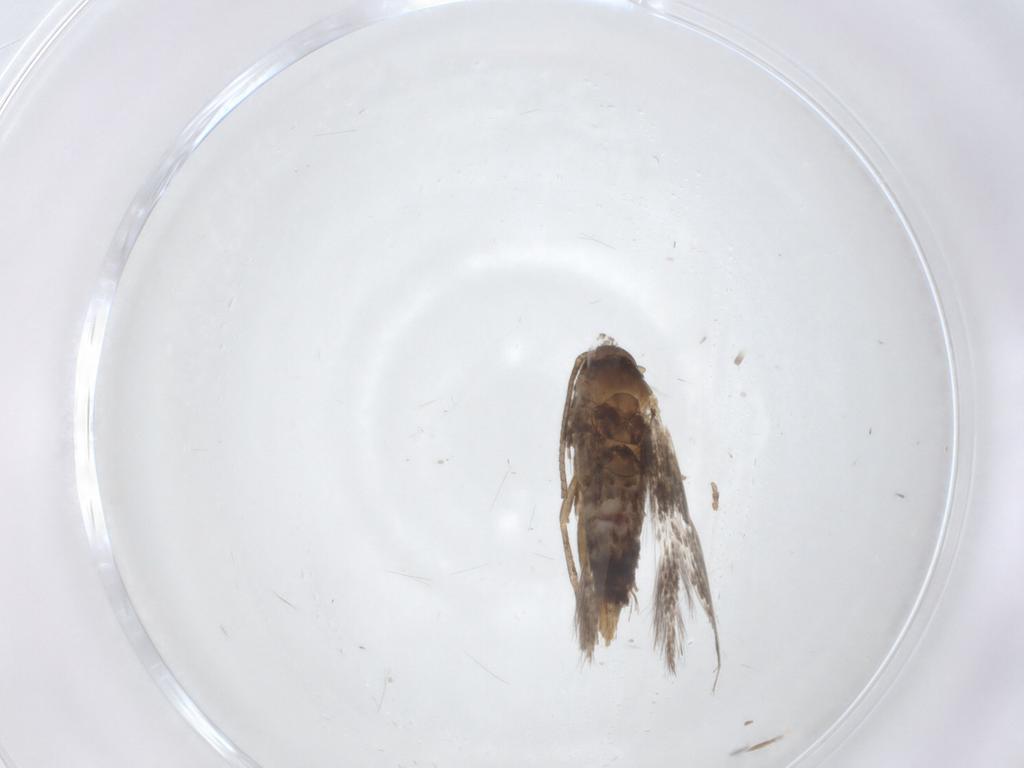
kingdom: Animalia
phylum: Arthropoda
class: Insecta
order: Lepidoptera
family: Elachistidae
